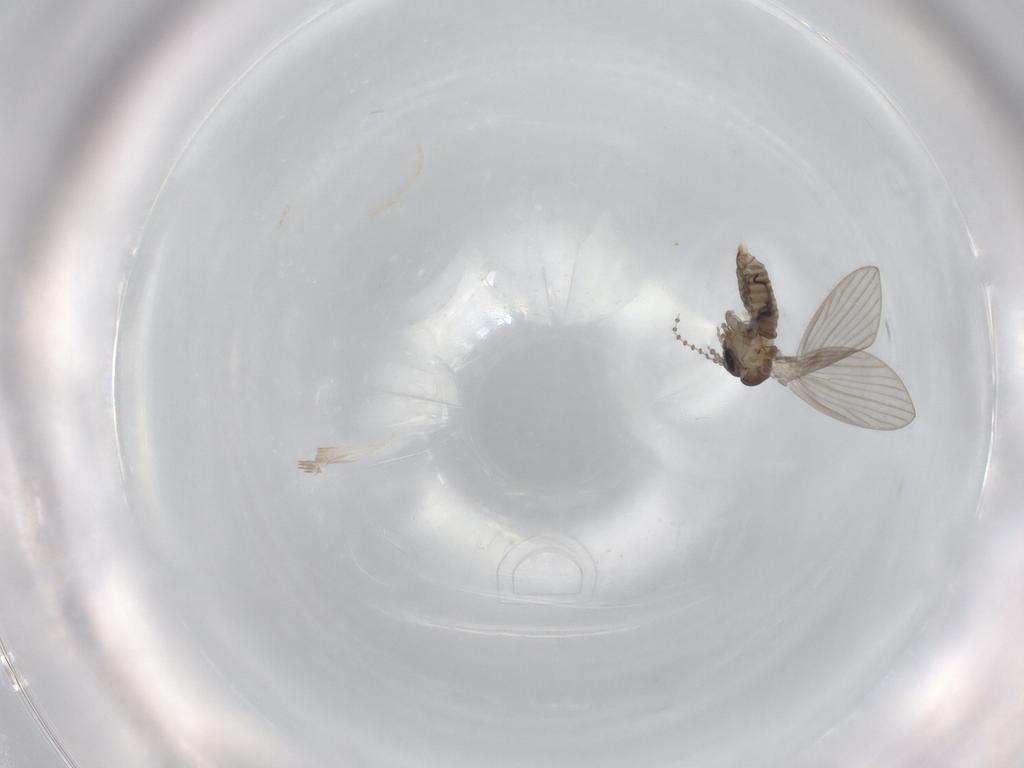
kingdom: Animalia
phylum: Arthropoda
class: Insecta
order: Diptera
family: Psychodidae
